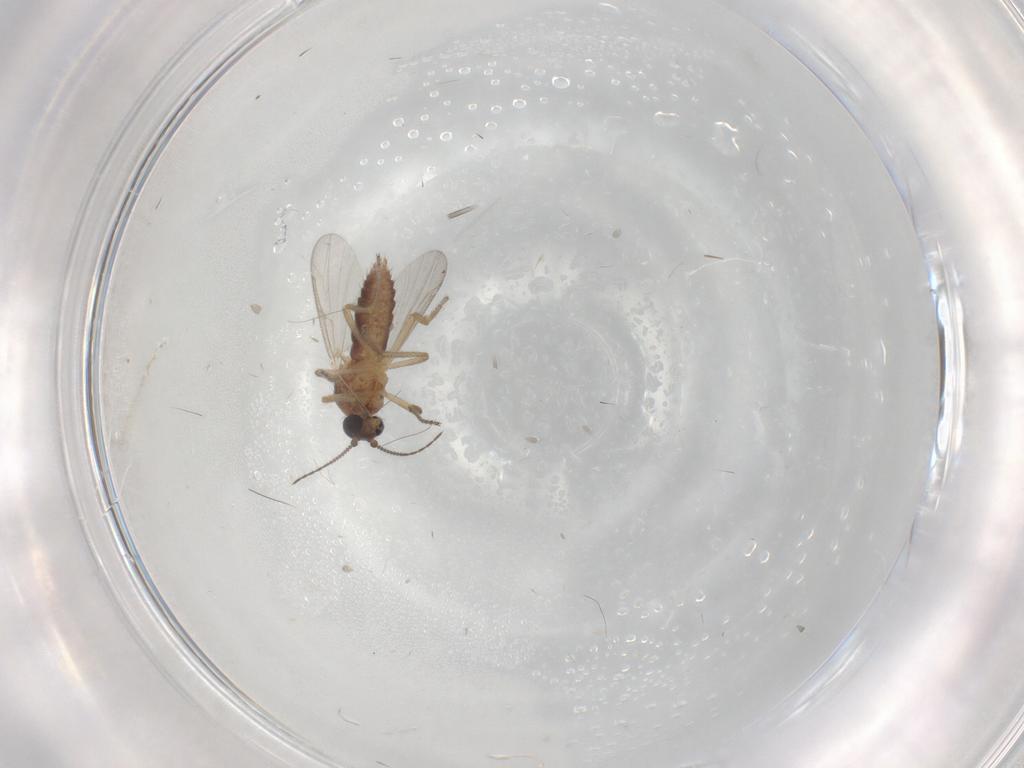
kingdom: Animalia
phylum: Arthropoda
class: Insecta
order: Diptera
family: Ceratopogonidae
